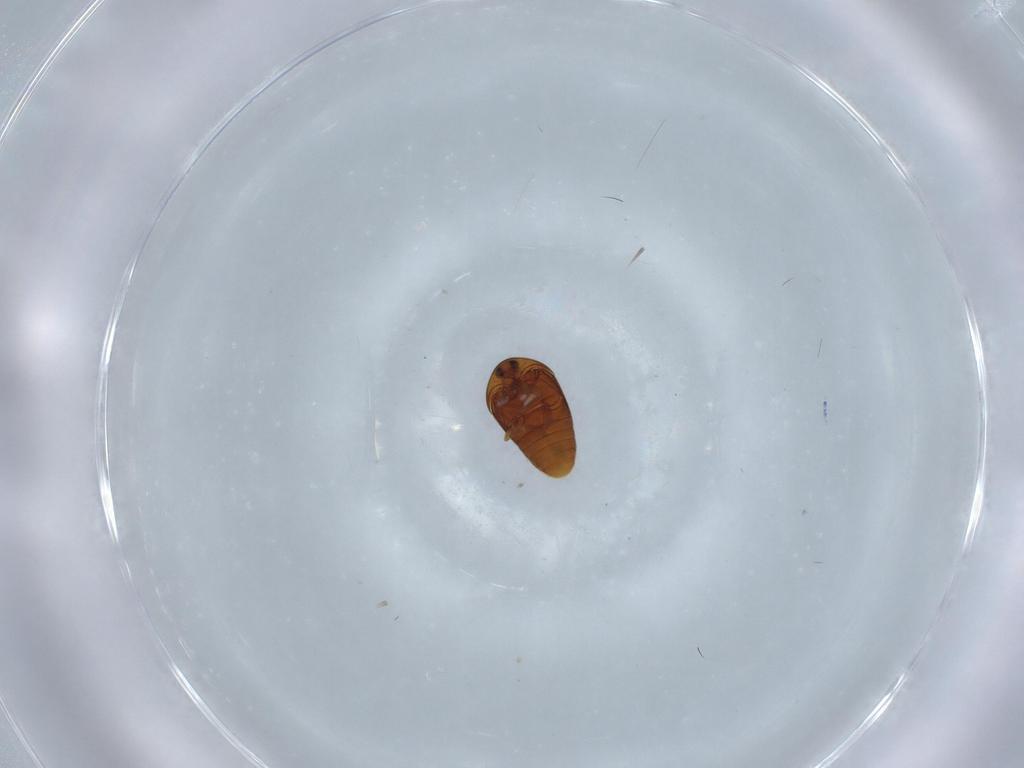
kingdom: Animalia
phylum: Arthropoda
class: Insecta
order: Coleoptera
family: Corylophidae
